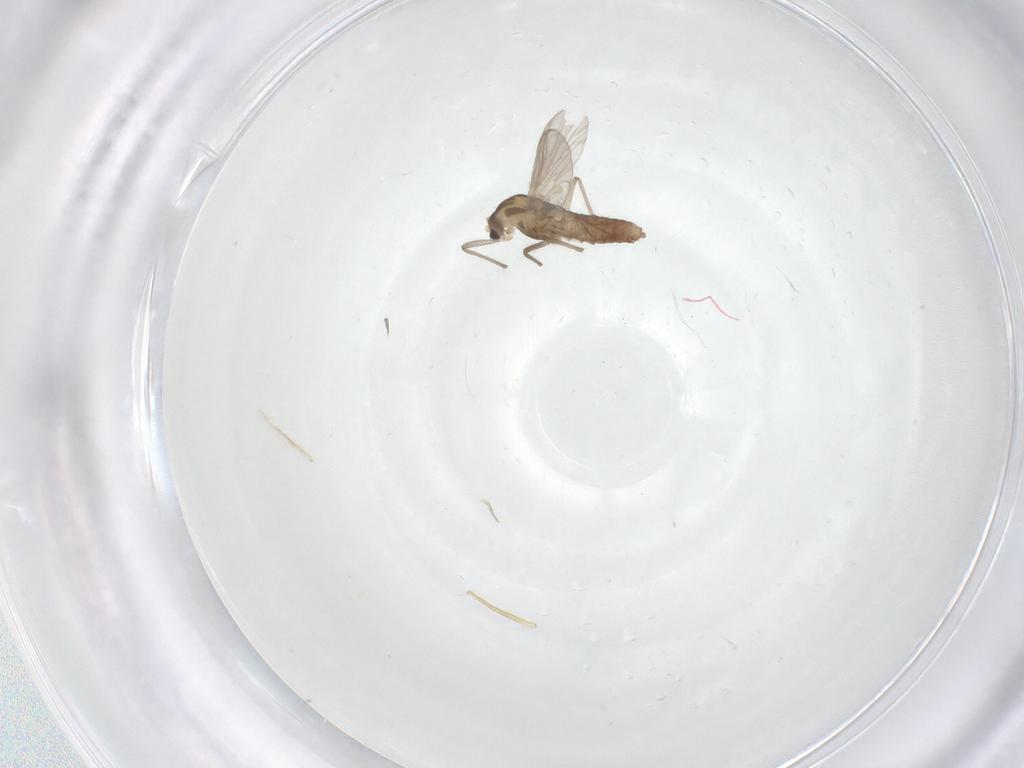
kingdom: Animalia
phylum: Arthropoda
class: Insecta
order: Diptera
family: Chironomidae
